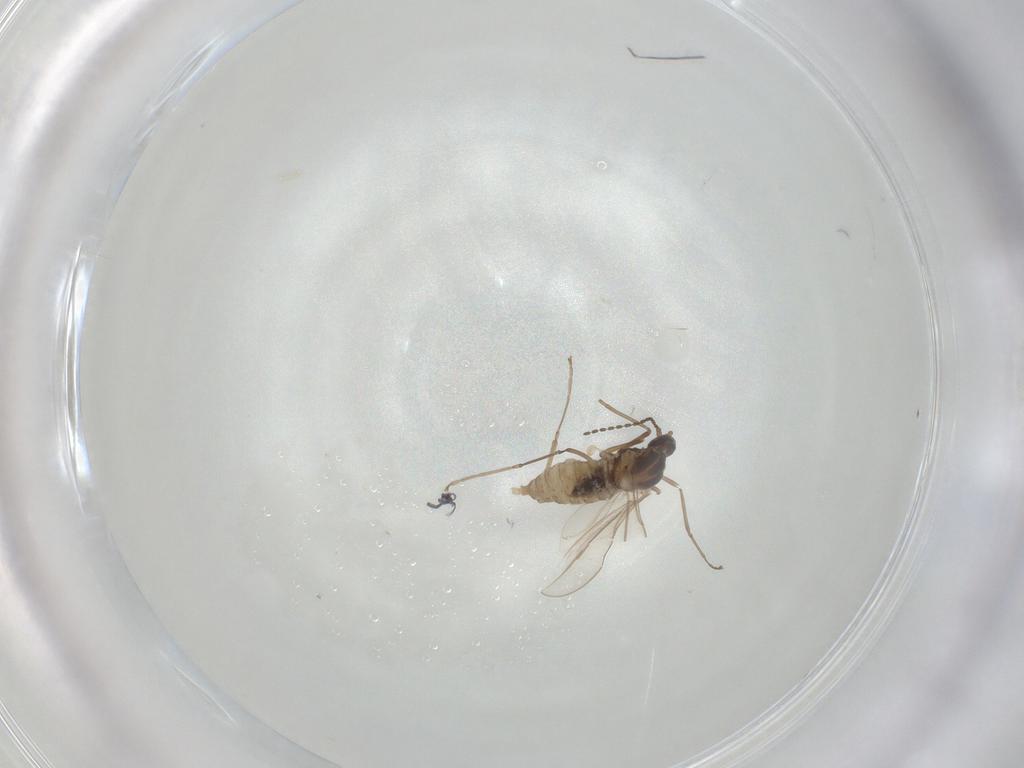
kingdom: Animalia
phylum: Arthropoda
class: Insecta
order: Diptera
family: Cecidomyiidae
